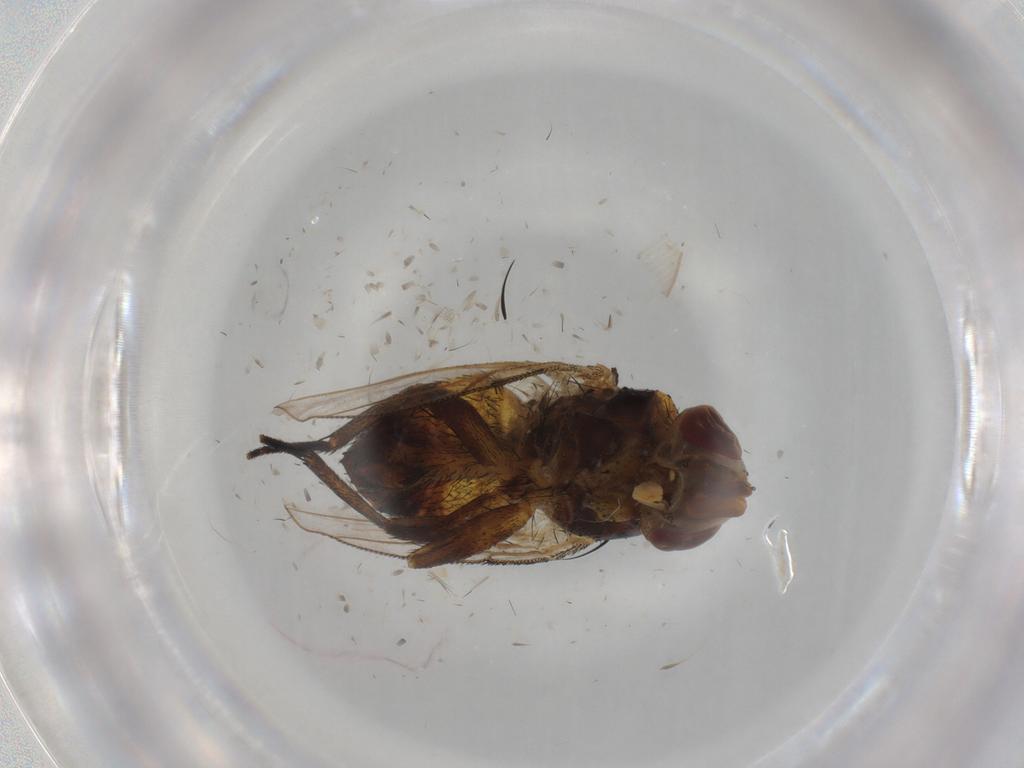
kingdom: Animalia
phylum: Arthropoda
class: Insecta
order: Diptera
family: Glossinidae
